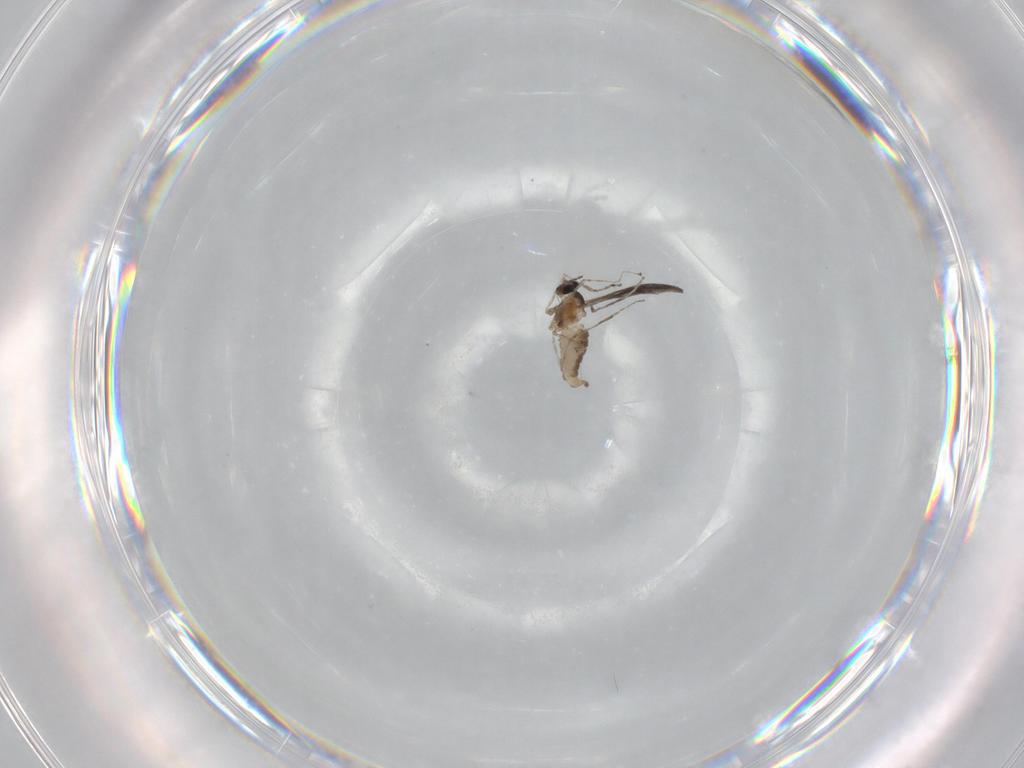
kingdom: Animalia
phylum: Arthropoda
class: Insecta
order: Diptera
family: Cecidomyiidae
